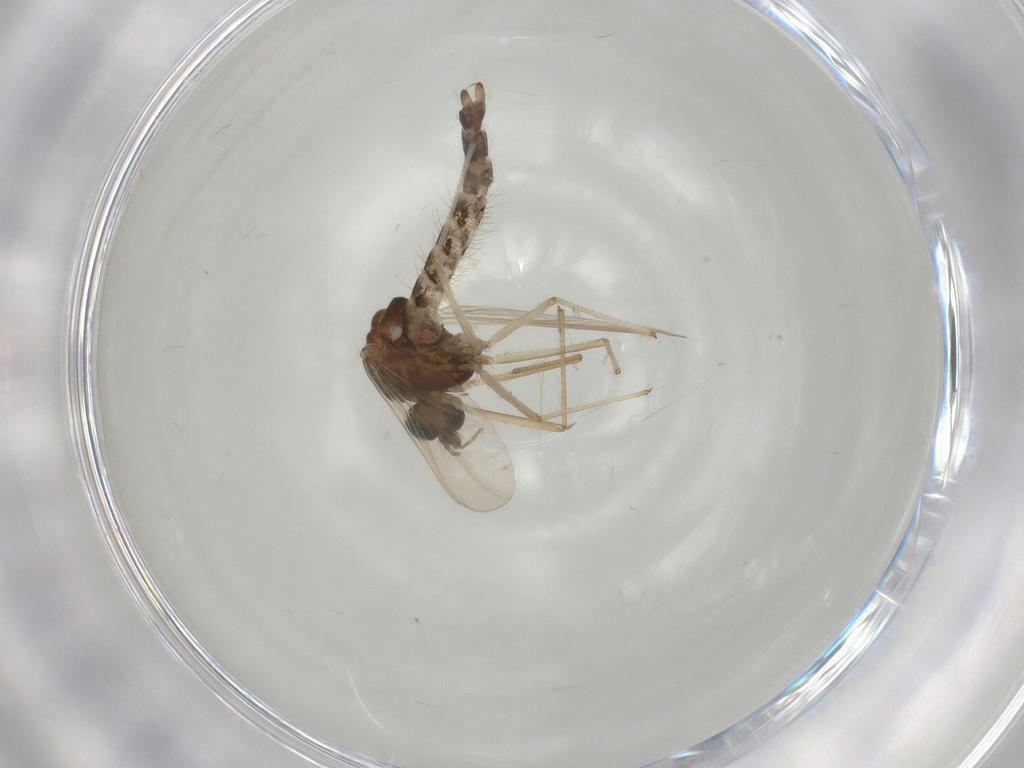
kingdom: Animalia
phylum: Arthropoda
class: Insecta
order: Diptera
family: Chironomidae
